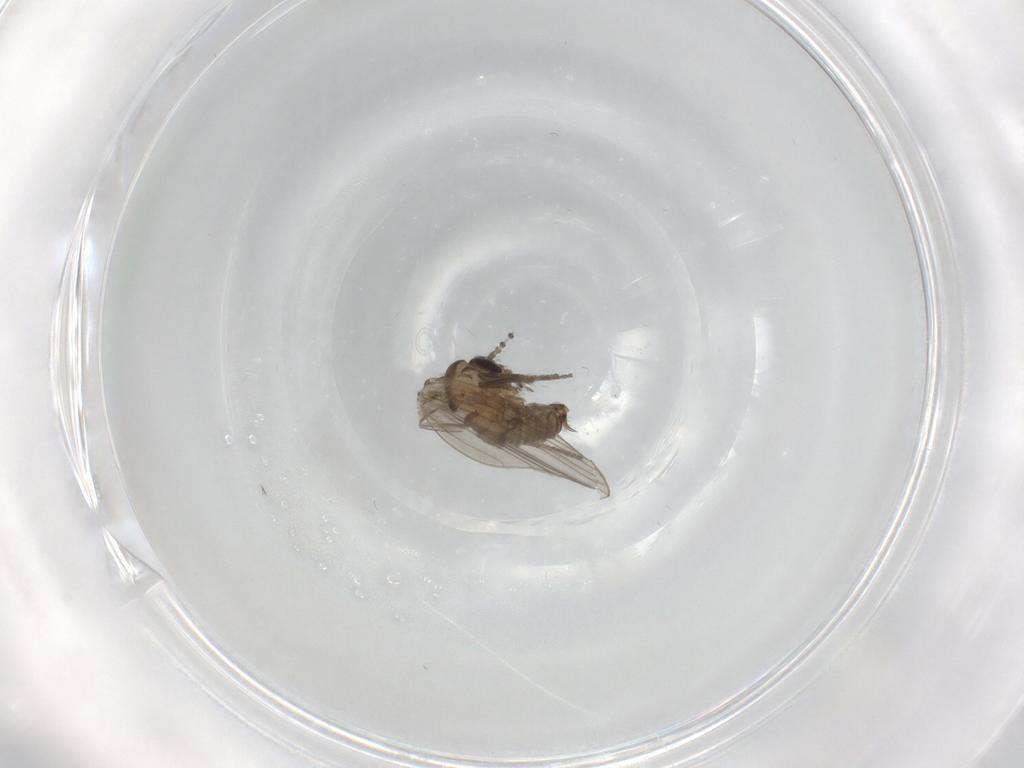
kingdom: Animalia
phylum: Arthropoda
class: Insecta
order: Diptera
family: Psychodidae
